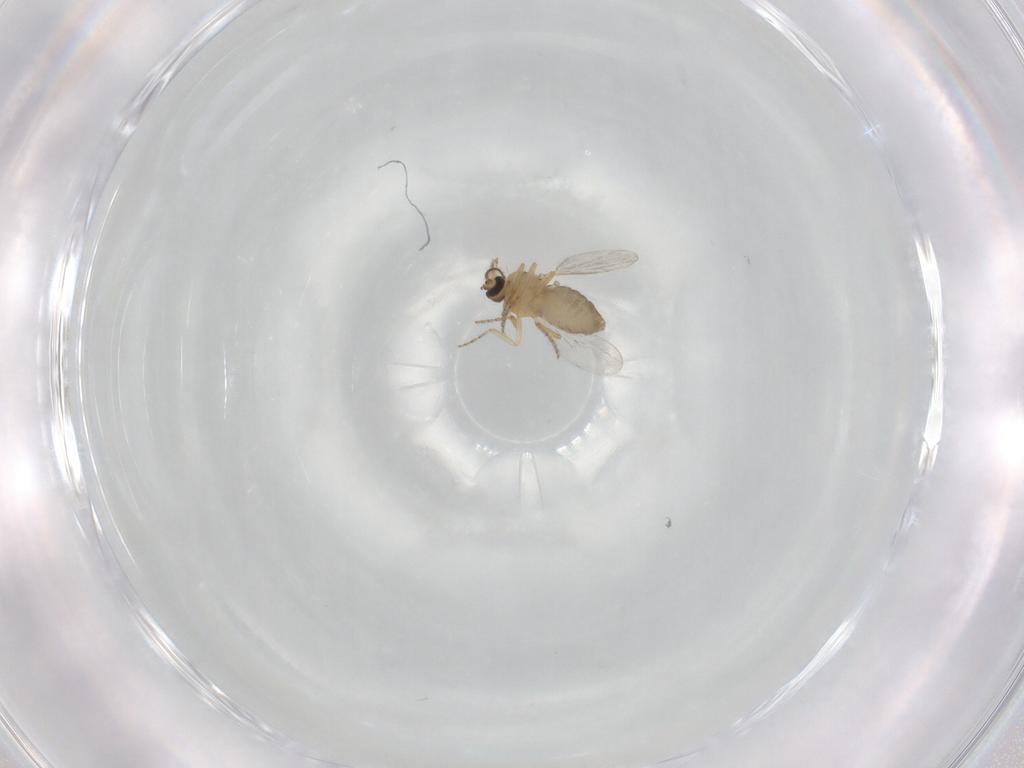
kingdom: Animalia
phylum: Arthropoda
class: Insecta
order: Diptera
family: Ceratopogonidae
